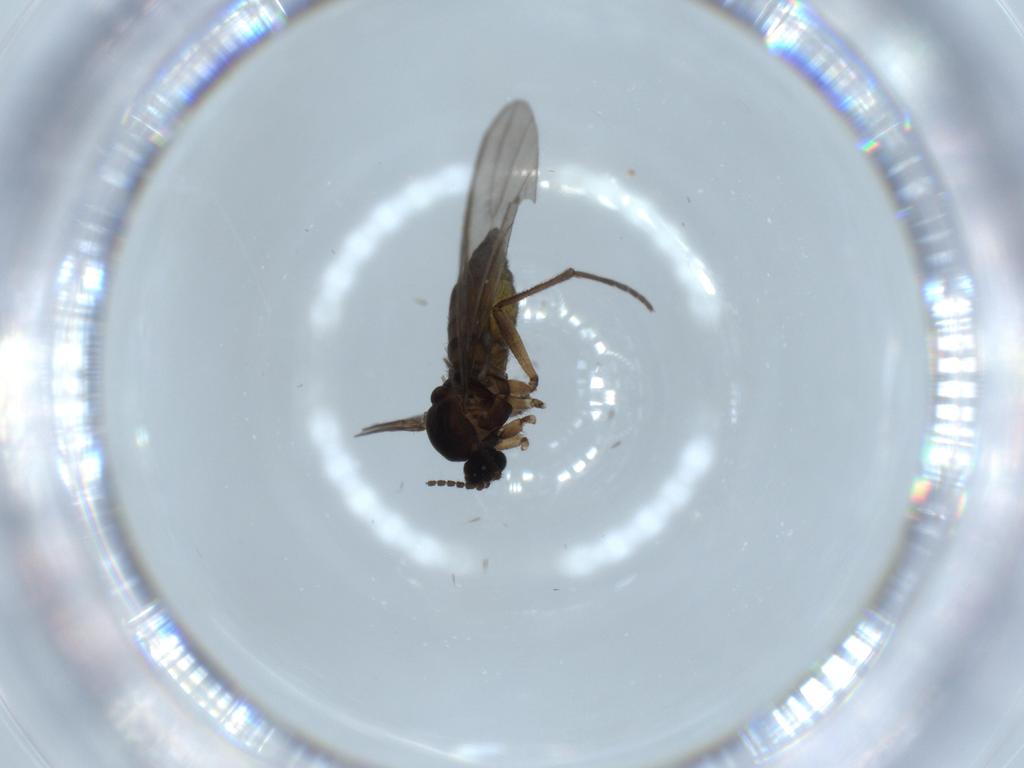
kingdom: Animalia
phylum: Arthropoda
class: Insecta
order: Diptera
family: Sciaridae
